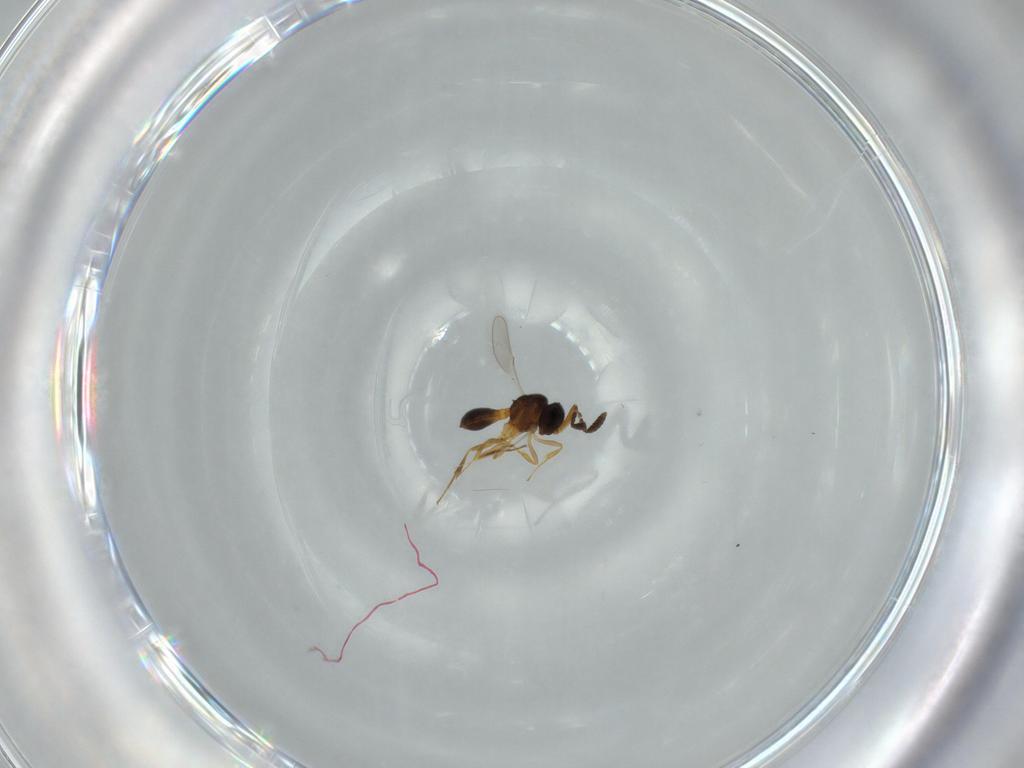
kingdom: Animalia
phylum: Arthropoda
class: Insecta
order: Hymenoptera
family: Scelionidae
